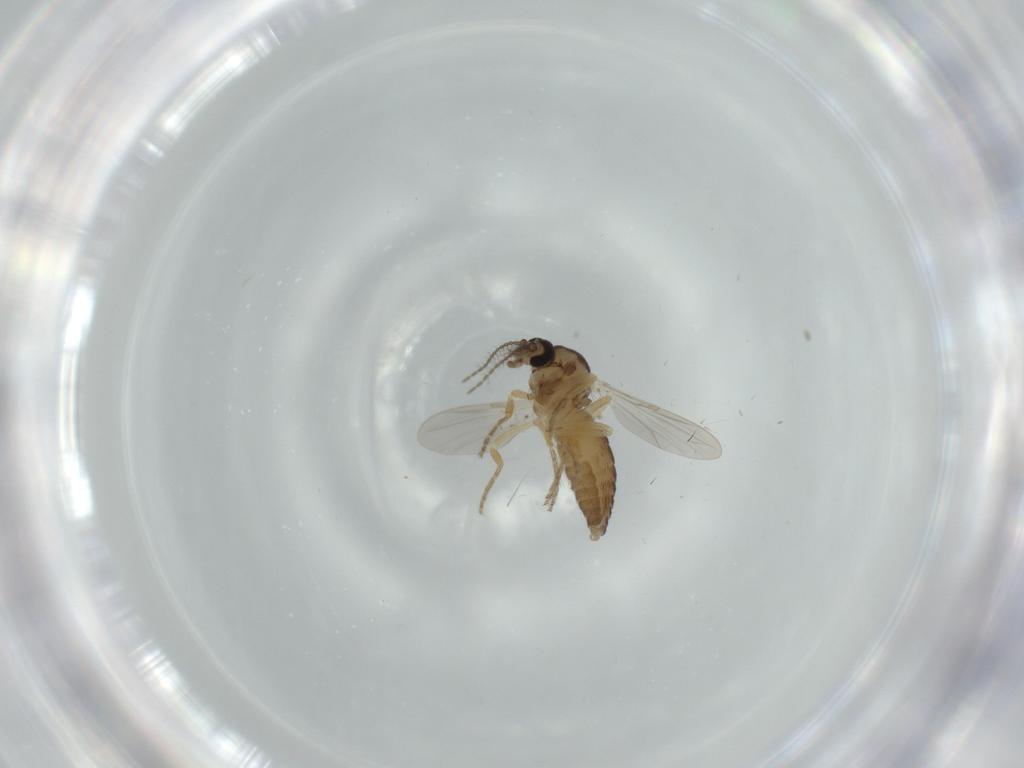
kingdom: Animalia
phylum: Arthropoda
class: Insecta
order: Diptera
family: Ceratopogonidae
